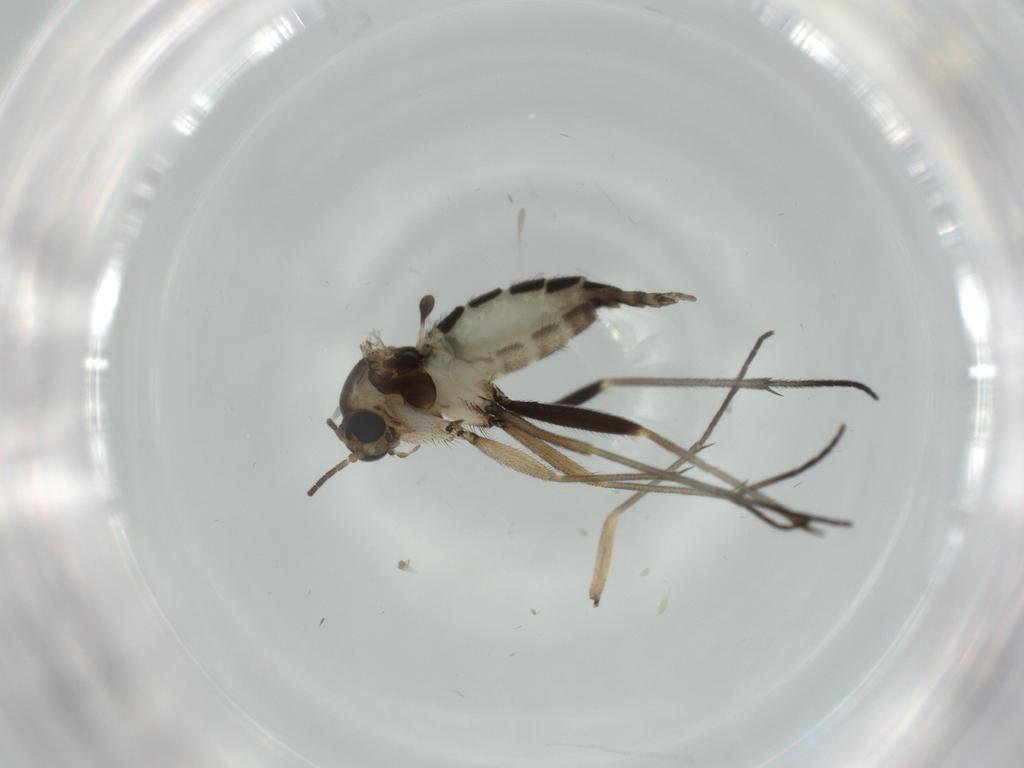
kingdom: Animalia
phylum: Arthropoda
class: Insecta
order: Diptera
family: Sciaridae
